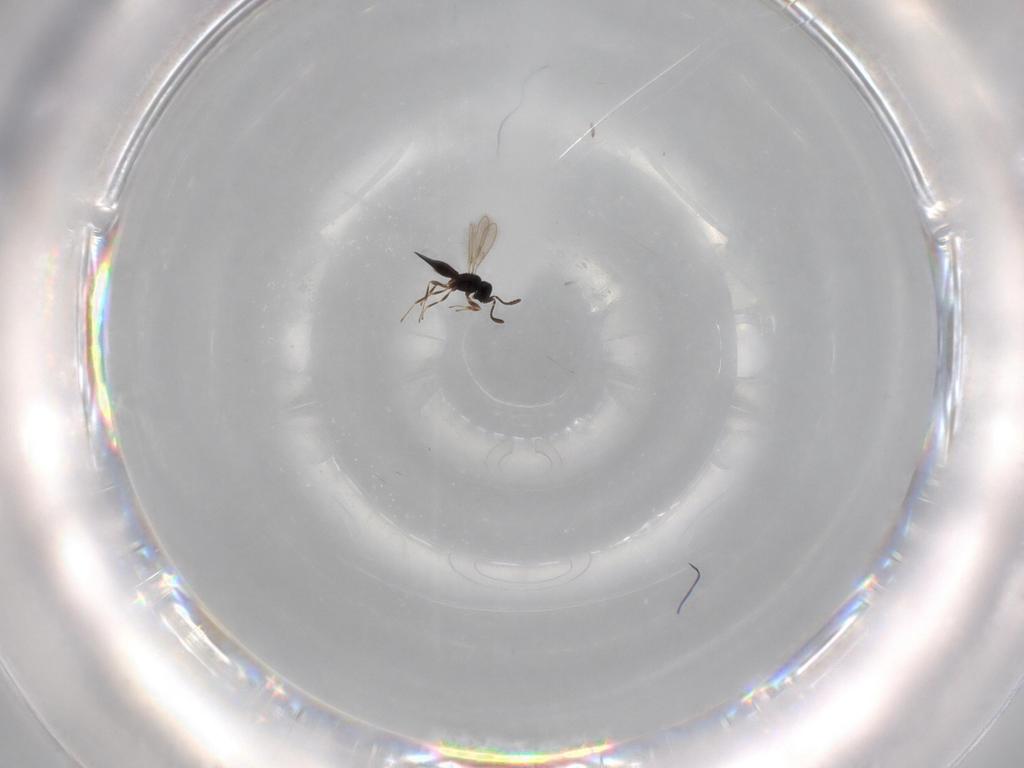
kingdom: Animalia
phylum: Arthropoda
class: Insecta
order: Hymenoptera
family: Scelionidae
